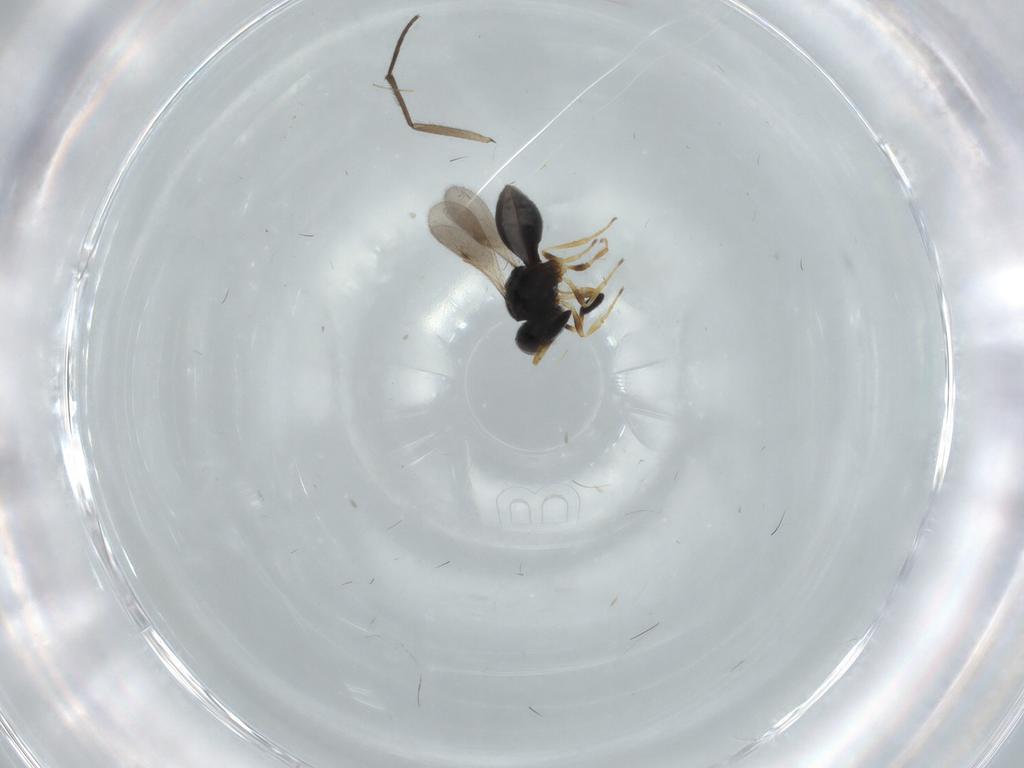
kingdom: Animalia
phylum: Arthropoda
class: Insecta
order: Hymenoptera
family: Scelionidae
